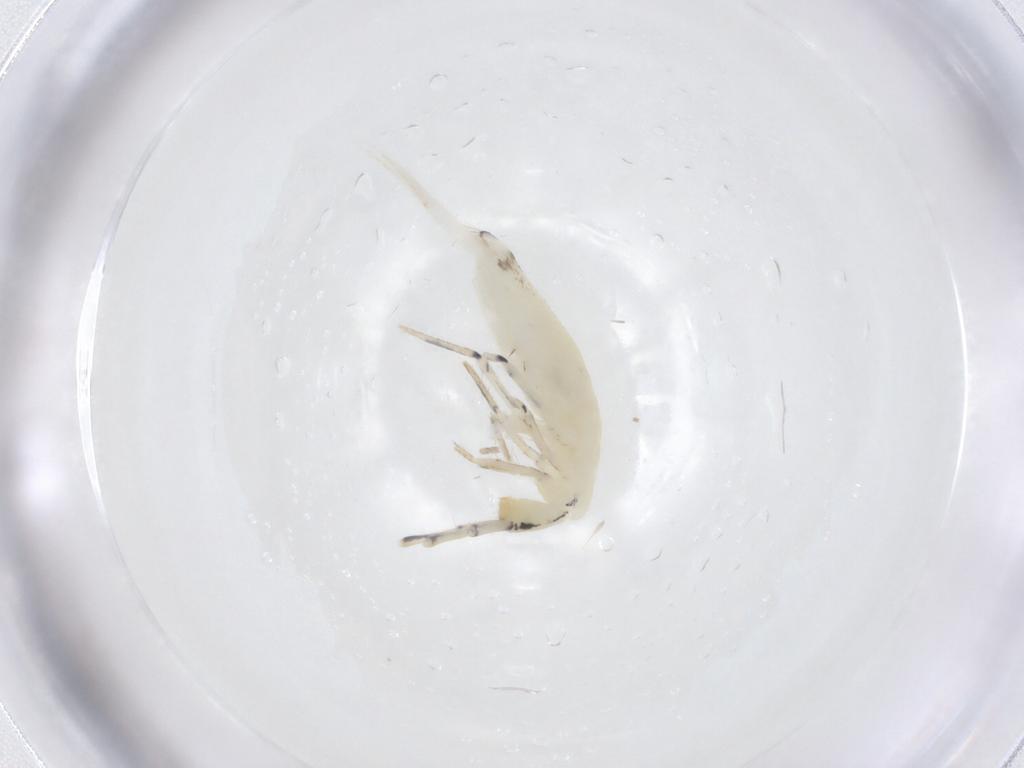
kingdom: Animalia
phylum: Arthropoda
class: Collembola
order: Entomobryomorpha
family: Entomobryidae
